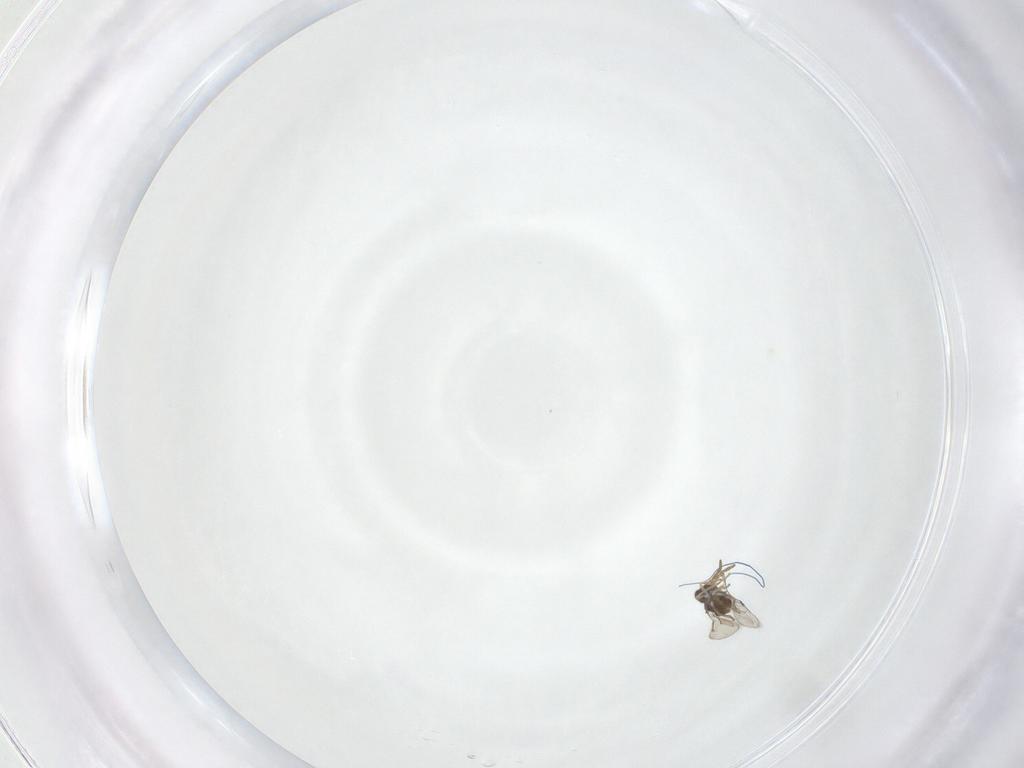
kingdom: Animalia
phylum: Arthropoda
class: Insecta
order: Hymenoptera
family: Aphelinidae
